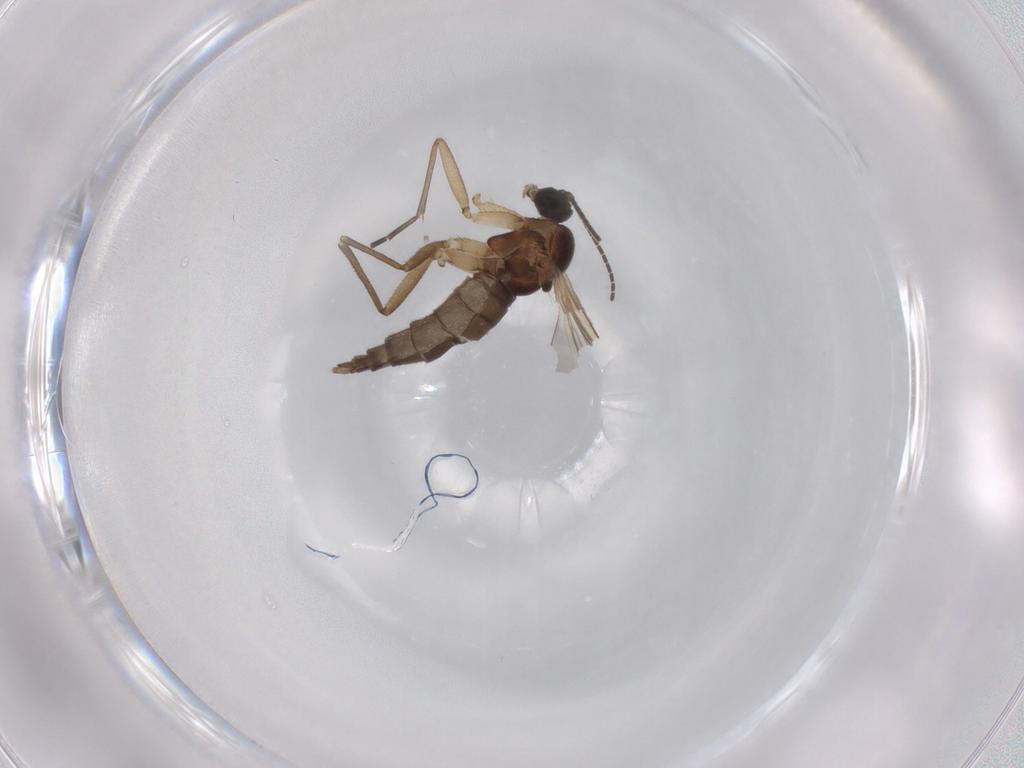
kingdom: Animalia
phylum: Arthropoda
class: Insecta
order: Diptera
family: Sciaridae
